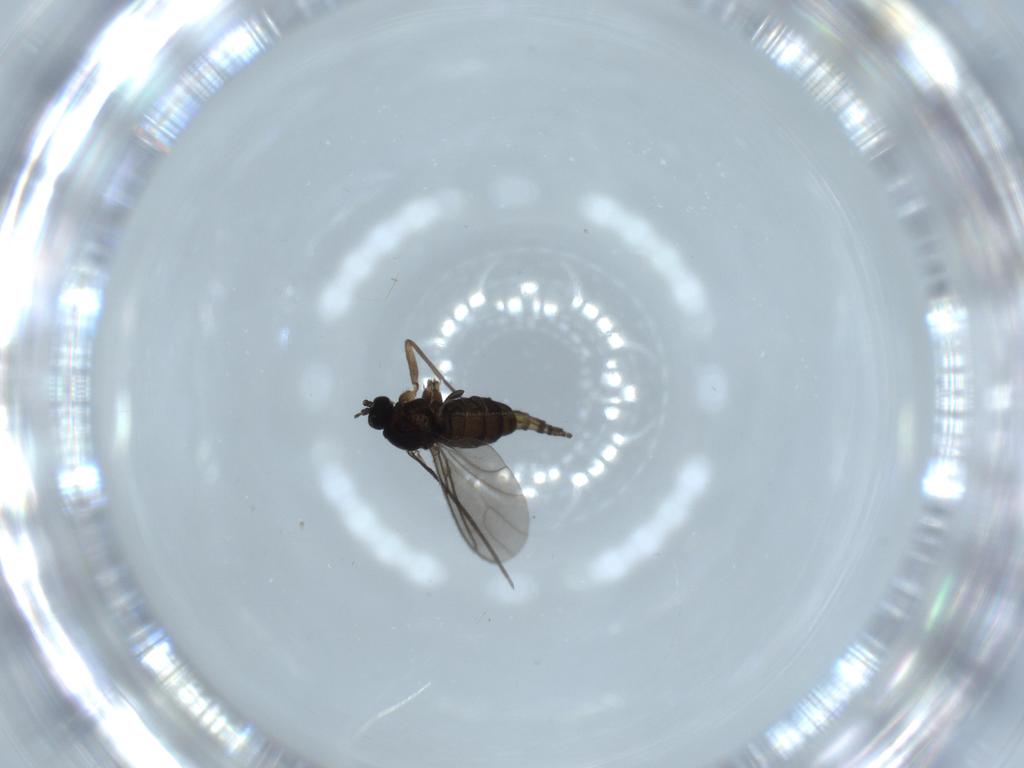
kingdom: Animalia
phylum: Arthropoda
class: Insecta
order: Diptera
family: Sciaridae
